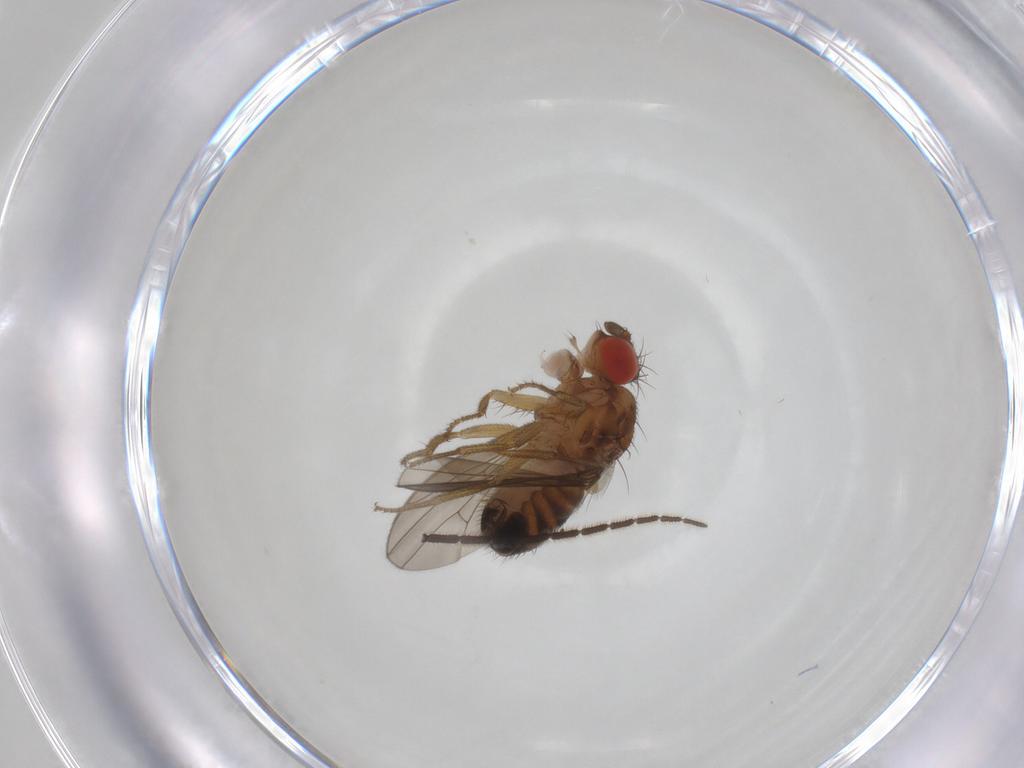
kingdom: Animalia
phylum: Arthropoda
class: Insecta
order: Diptera
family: Drosophilidae
